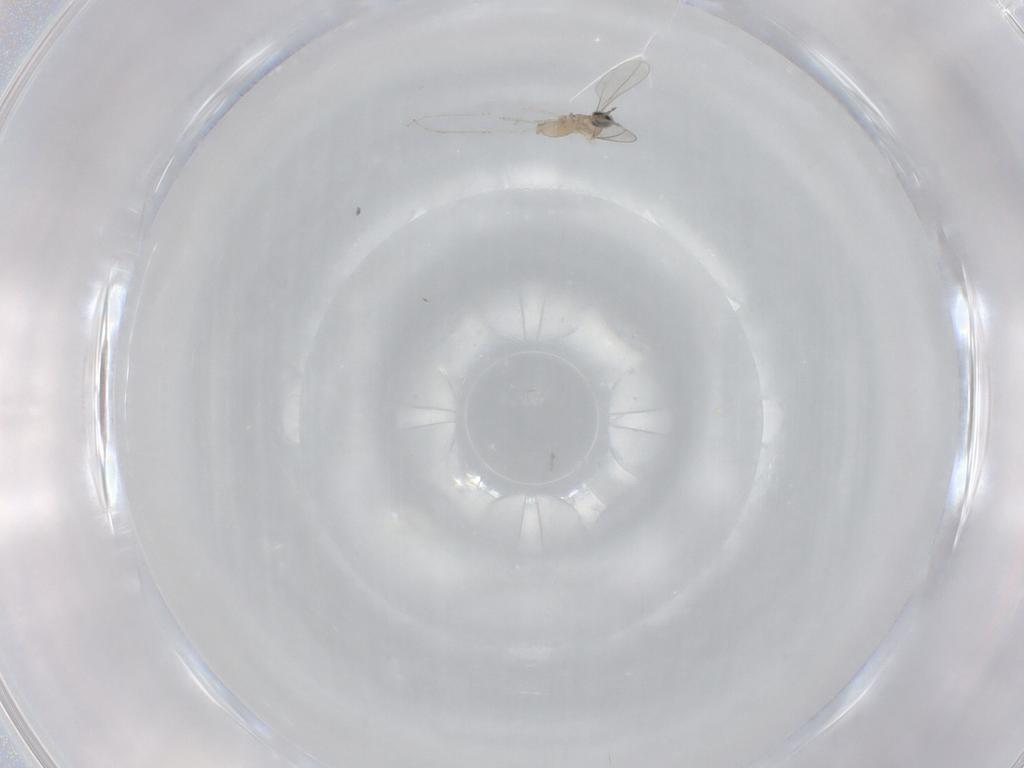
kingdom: Animalia
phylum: Arthropoda
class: Insecta
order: Diptera
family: Cecidomyiidae
